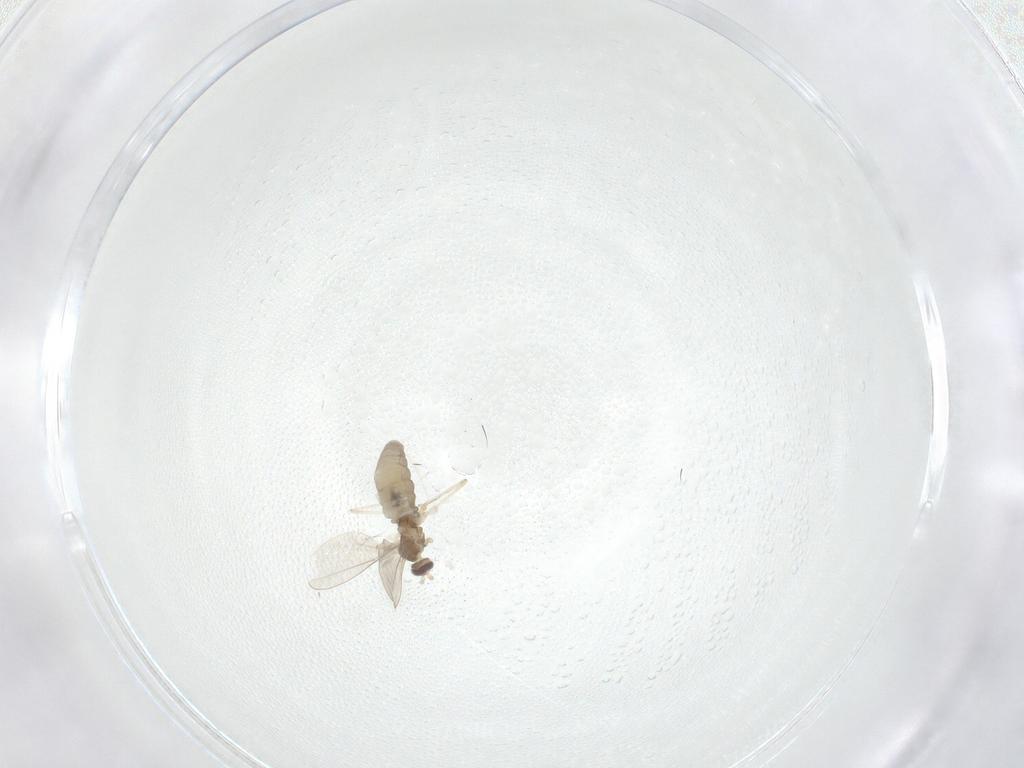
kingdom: Animalia
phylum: Arthropoda
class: Insecta
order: Diptera
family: Cecidomyiidae
